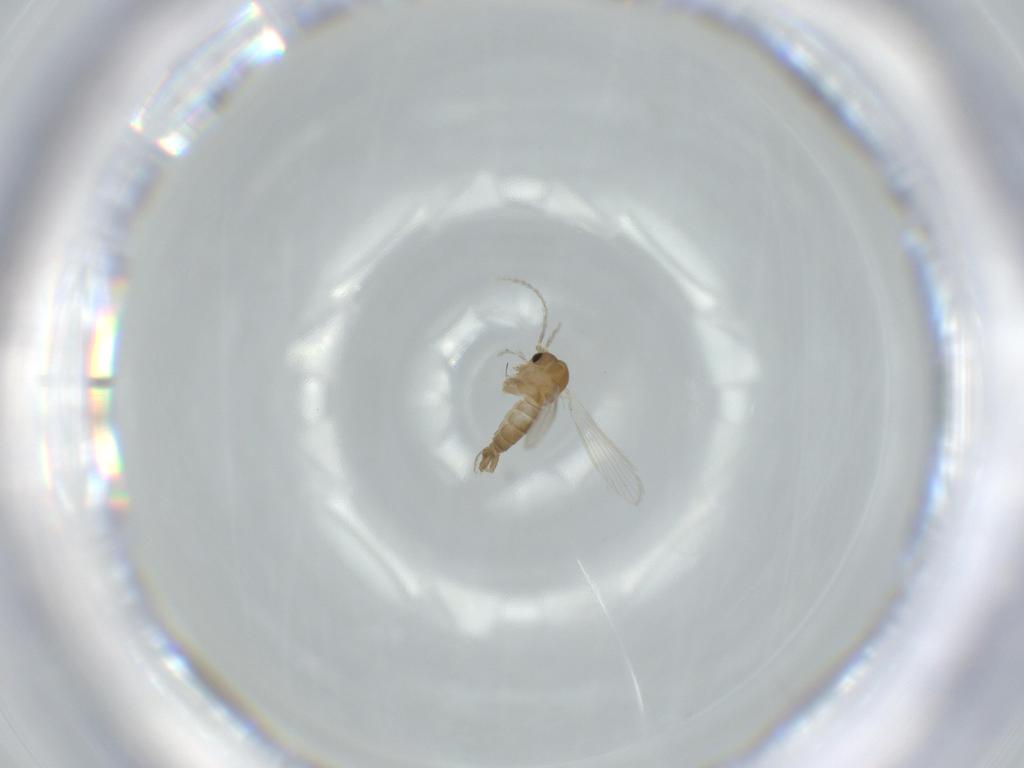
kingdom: Animalia
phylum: Arthropoda
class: Insecta
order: Diptera
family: Psychodidae
